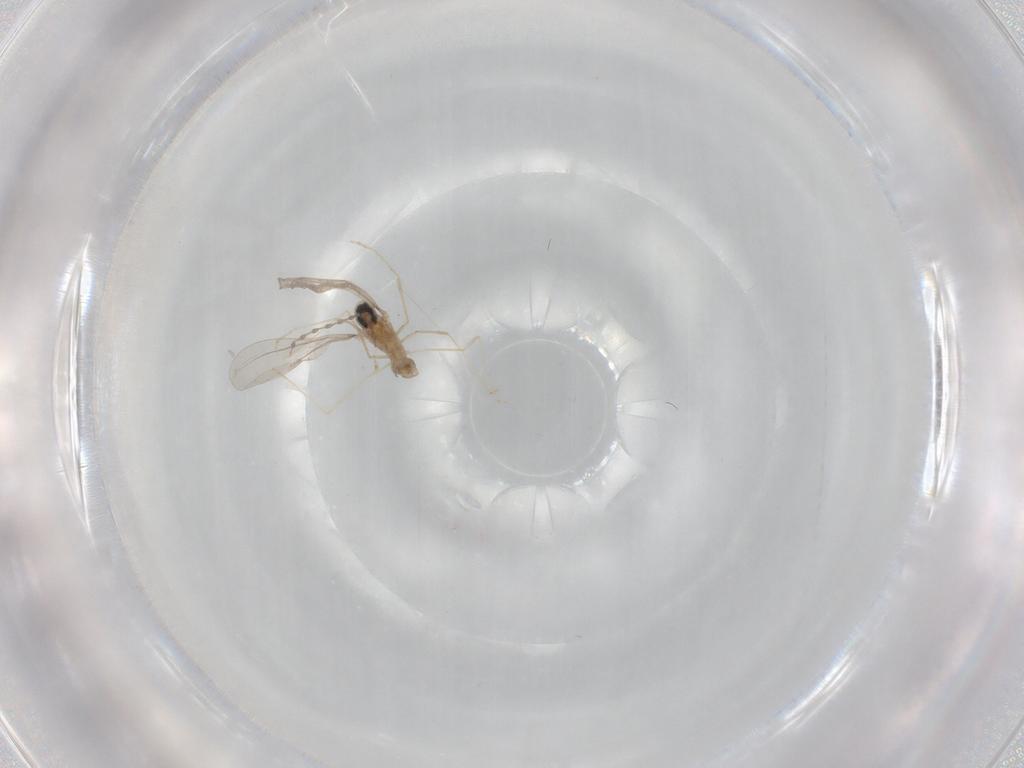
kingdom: Animalia
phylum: Arthropoda
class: Insecta
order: Diptera
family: Cecidomyiidae
